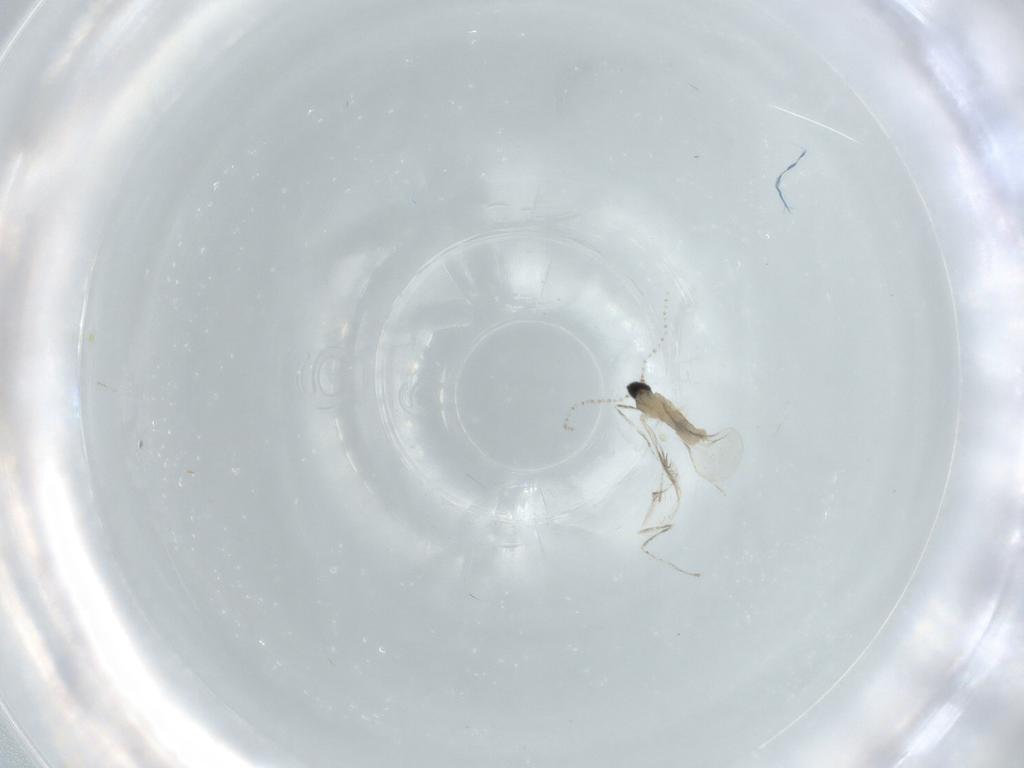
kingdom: Animalia
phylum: Arthropoda
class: Insecta
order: Diptera
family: Cecidomyiidae
